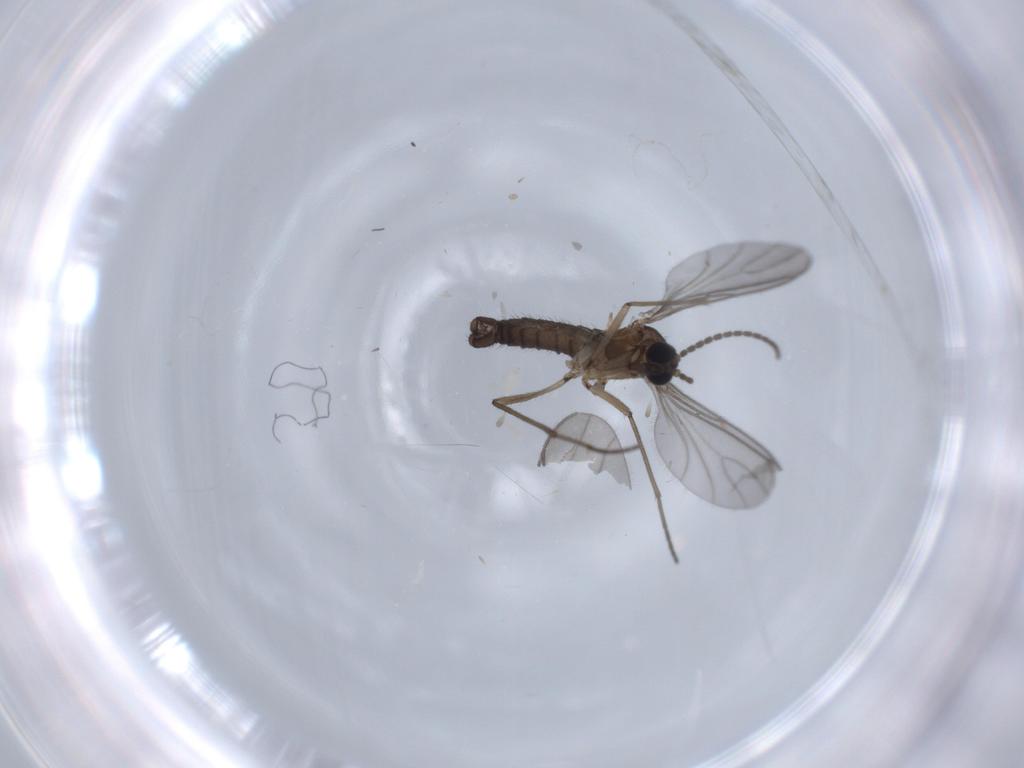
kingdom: Animalia
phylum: Arthropoda
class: Insecta
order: Diptera
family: Sciaridae
